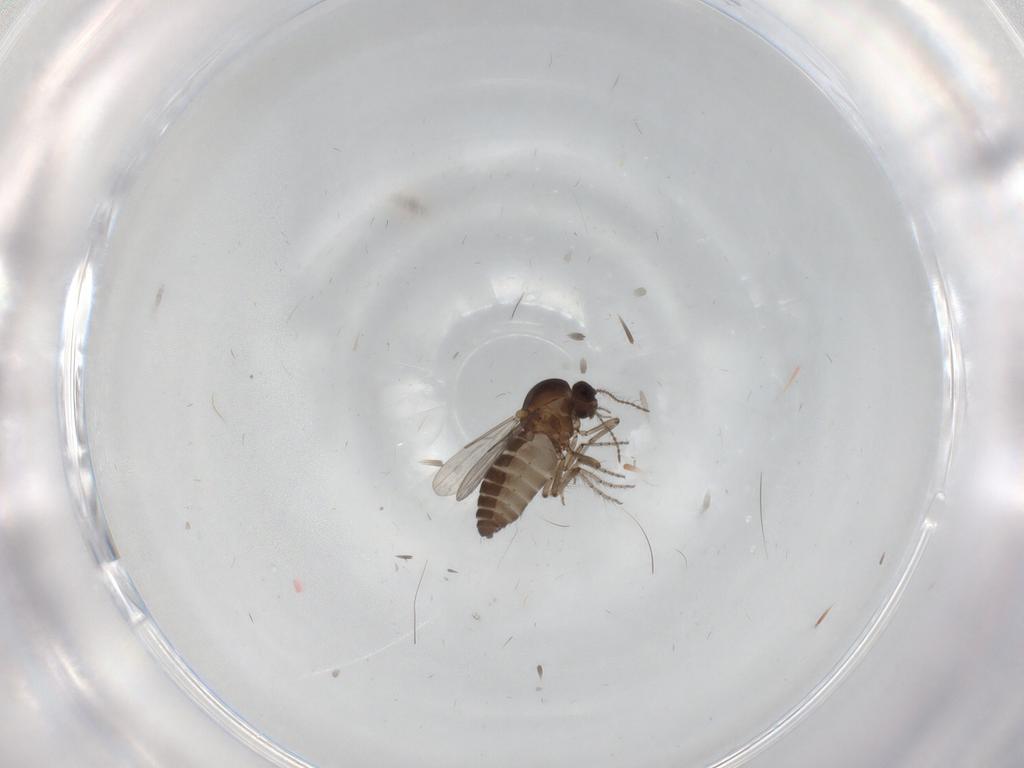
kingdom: Animalia
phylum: Arthropoda
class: Insecta
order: Diptera
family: Ceratopogonidae
